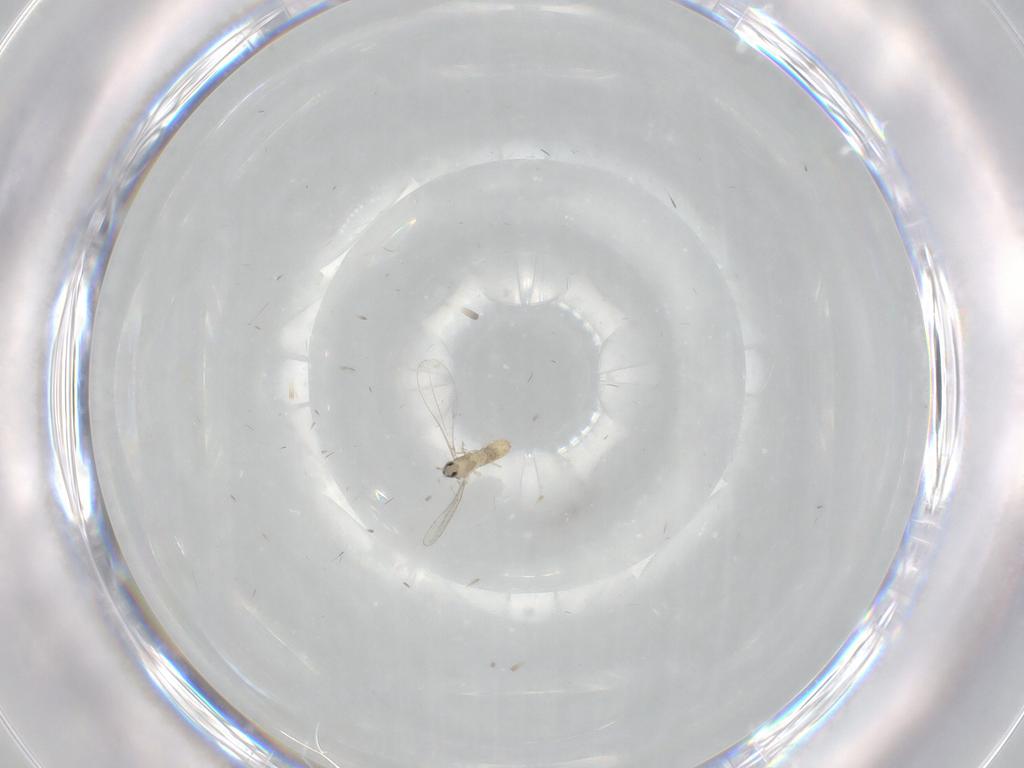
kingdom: Animalia
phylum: Arthropoda
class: Insecta
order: Diptera
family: Cecidomyiidae
